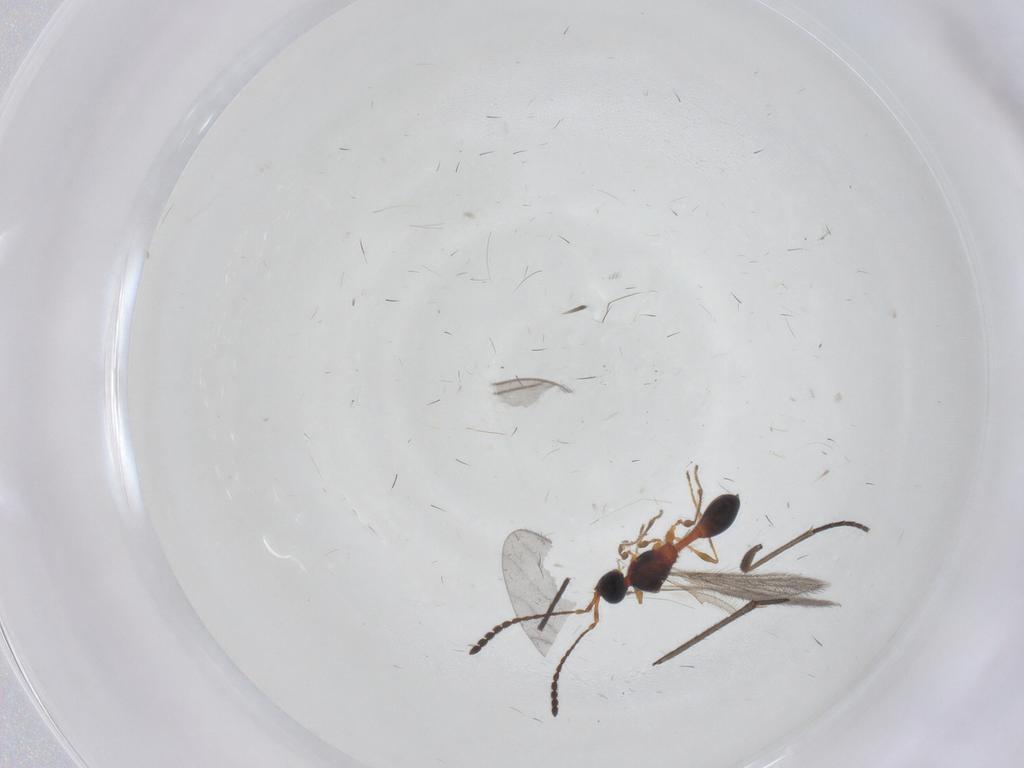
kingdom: Animalia
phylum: Arthropoda
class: Insecta
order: Hymenoptera
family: Diapriidae
